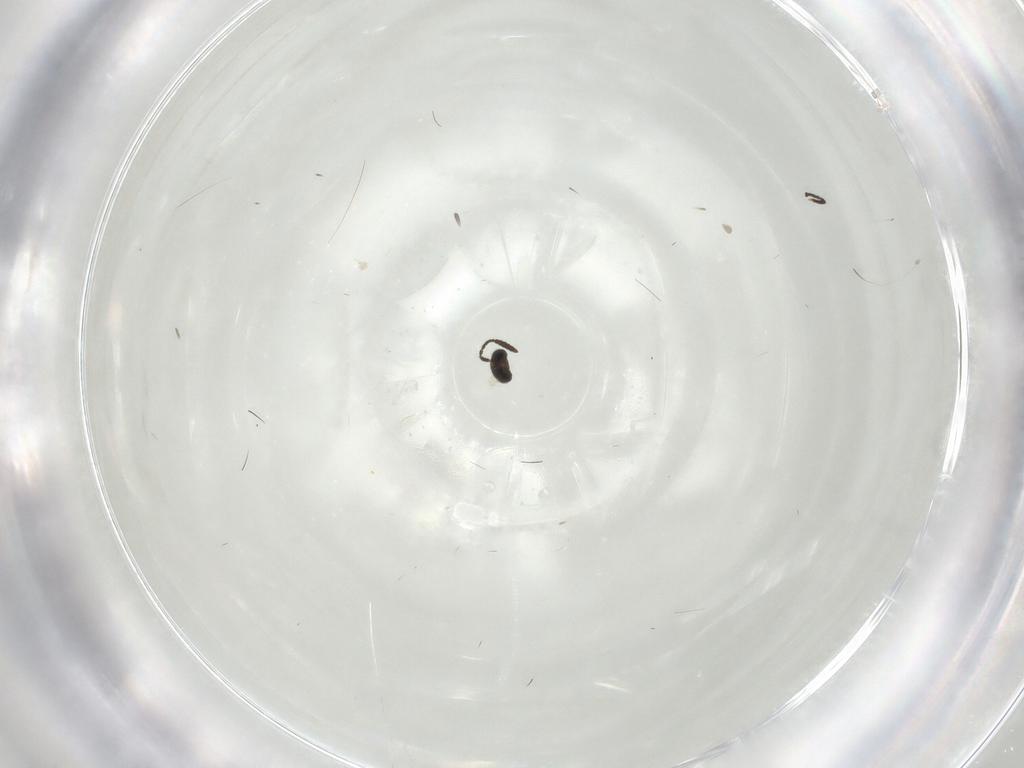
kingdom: Animalia
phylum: Arthropoda
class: Insecta
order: Hymenoptera
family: Scelionidae
